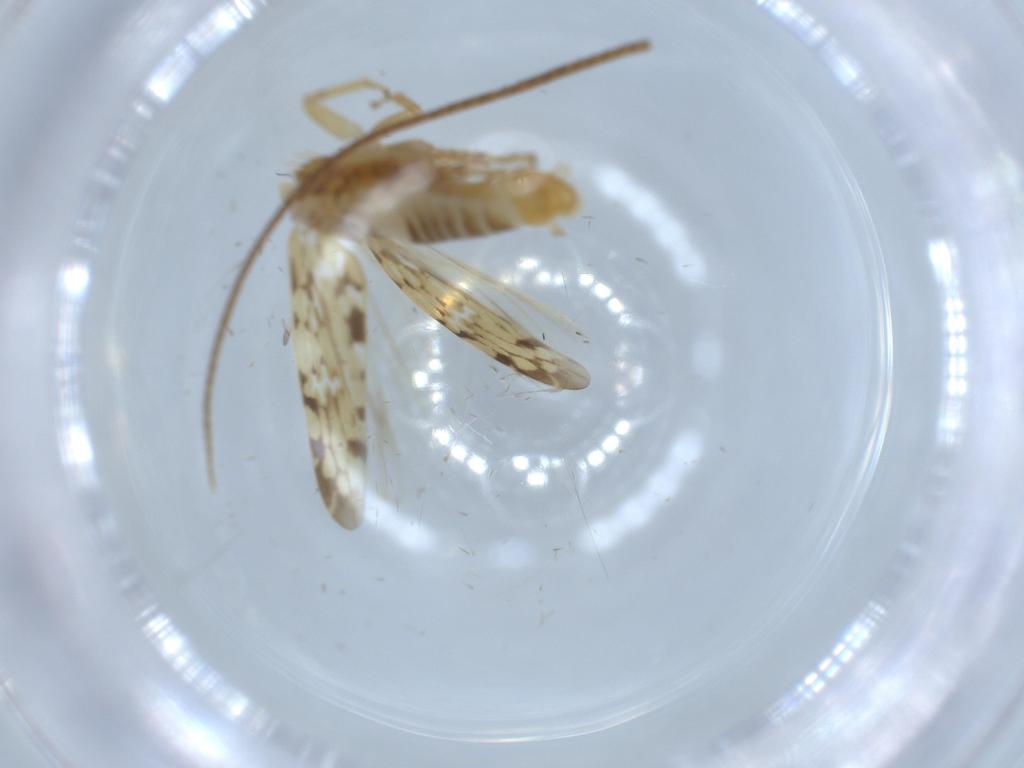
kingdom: Animalia
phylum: Arthropoda
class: Insecta
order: Hemiptera
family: Cicadellidae
